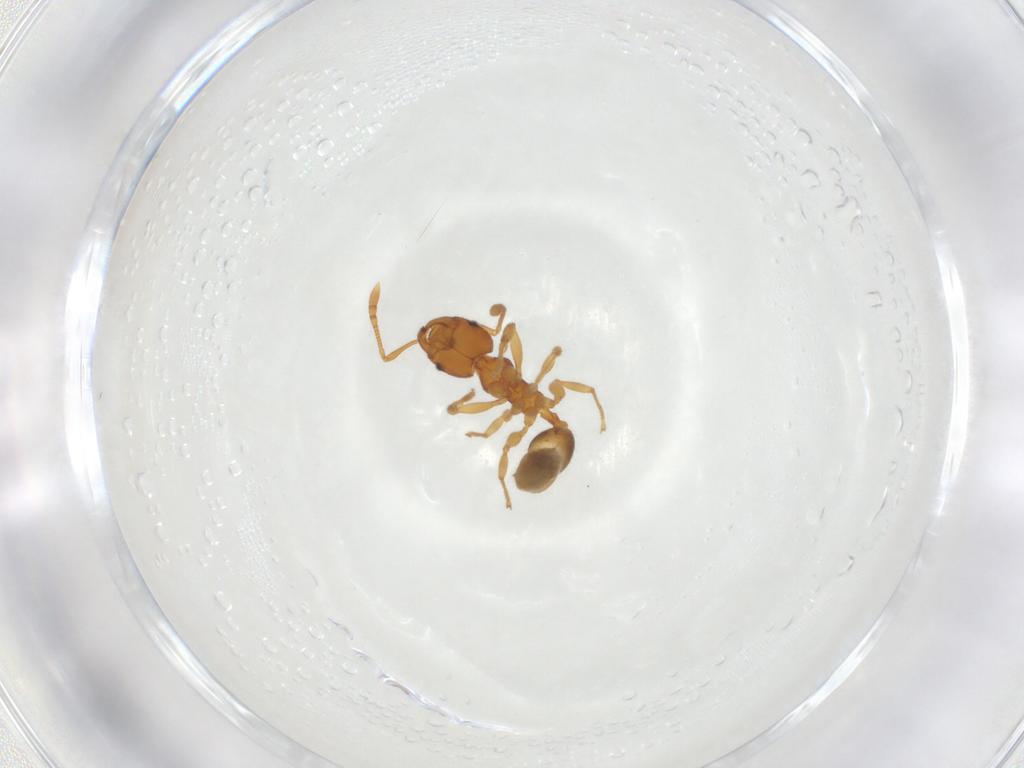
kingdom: Animalia
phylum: Arthropoda
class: Insecta
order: Hymenoptera
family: Formicidae
